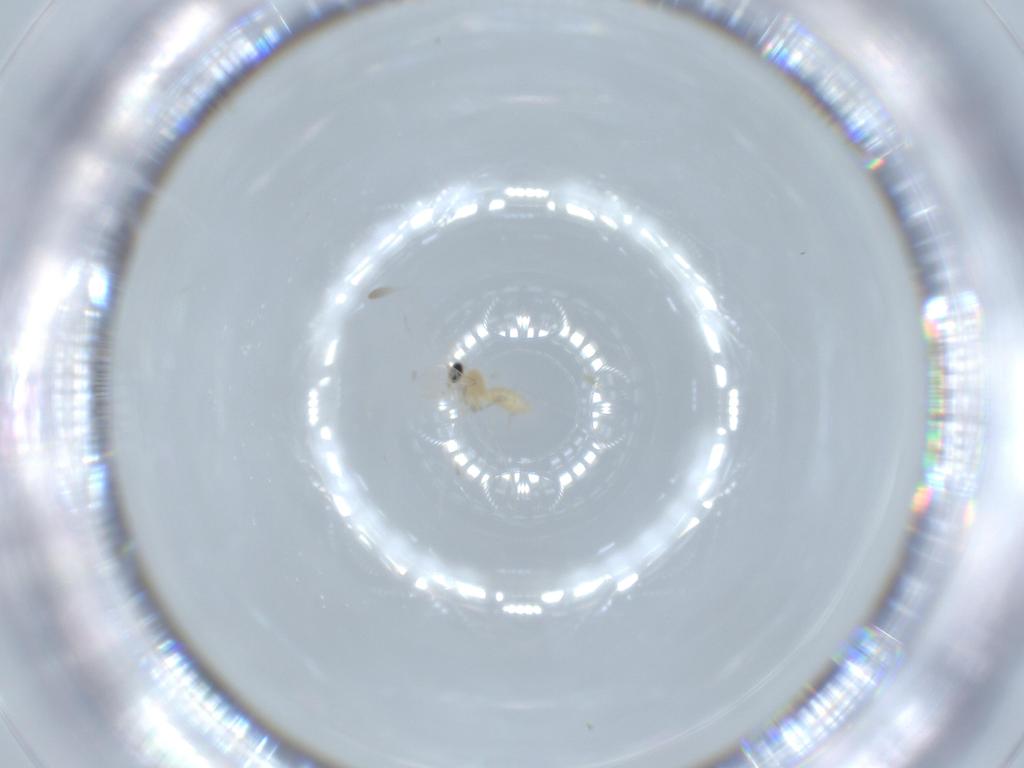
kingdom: Animalia
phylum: Arthropoda
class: Insecta
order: Diptera
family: Cecidomyiidae
